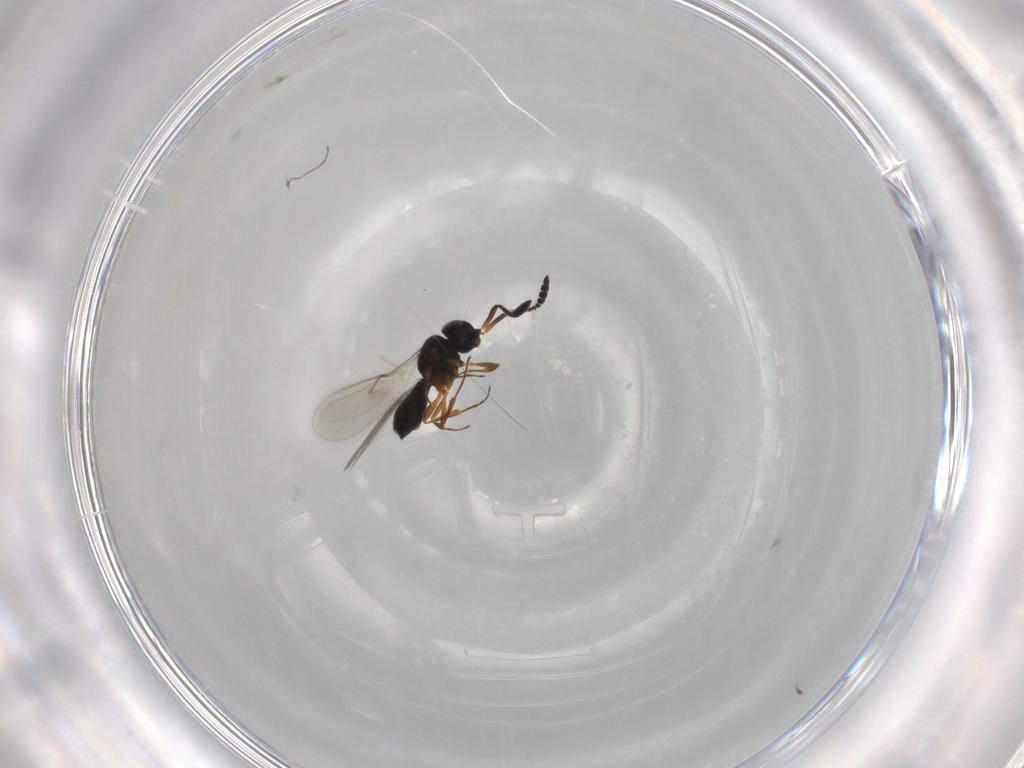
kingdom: Animalia
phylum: Arthropoda
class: Insecta
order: Hymenoptera
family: Scelionidae
